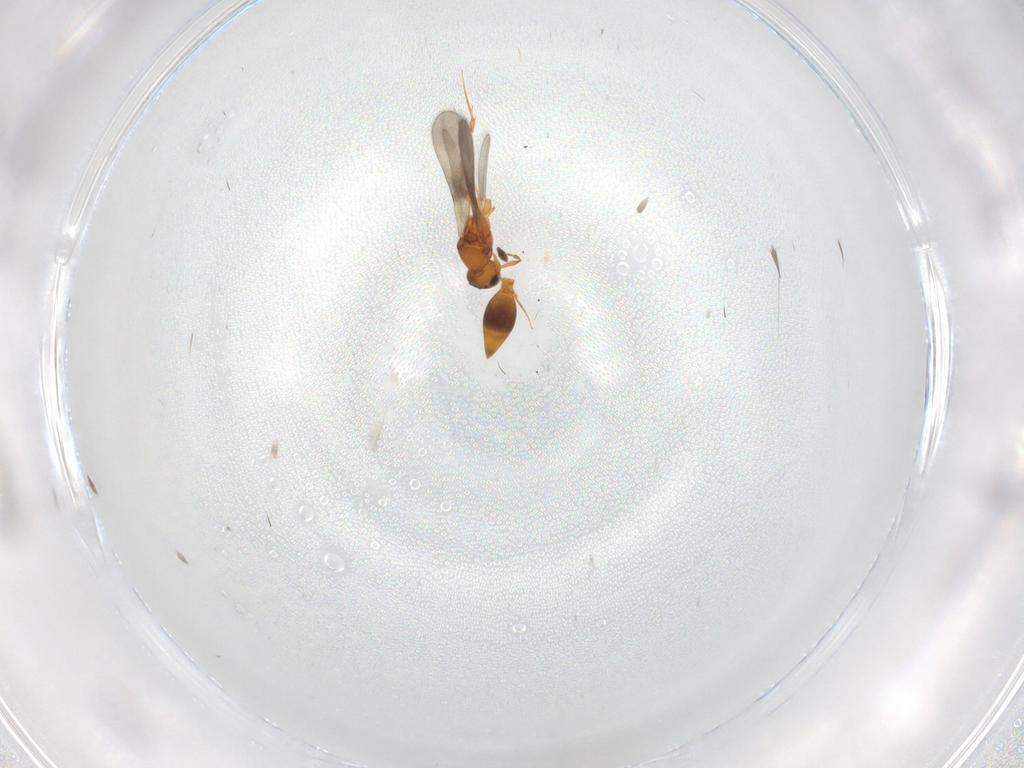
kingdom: Animalia
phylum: Arthropoda
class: Insecta
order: Hymenoptera
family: Platygastridae
